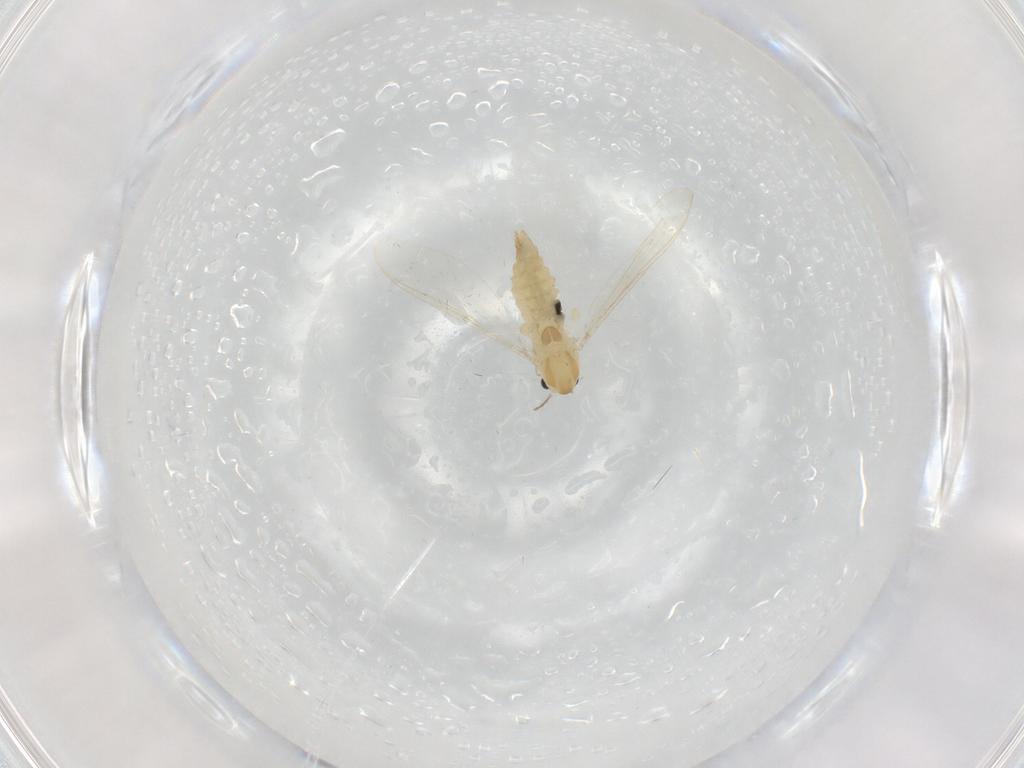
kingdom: Animalia
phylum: Arthropoda
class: Insecta
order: Diptera
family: Chironomidae
